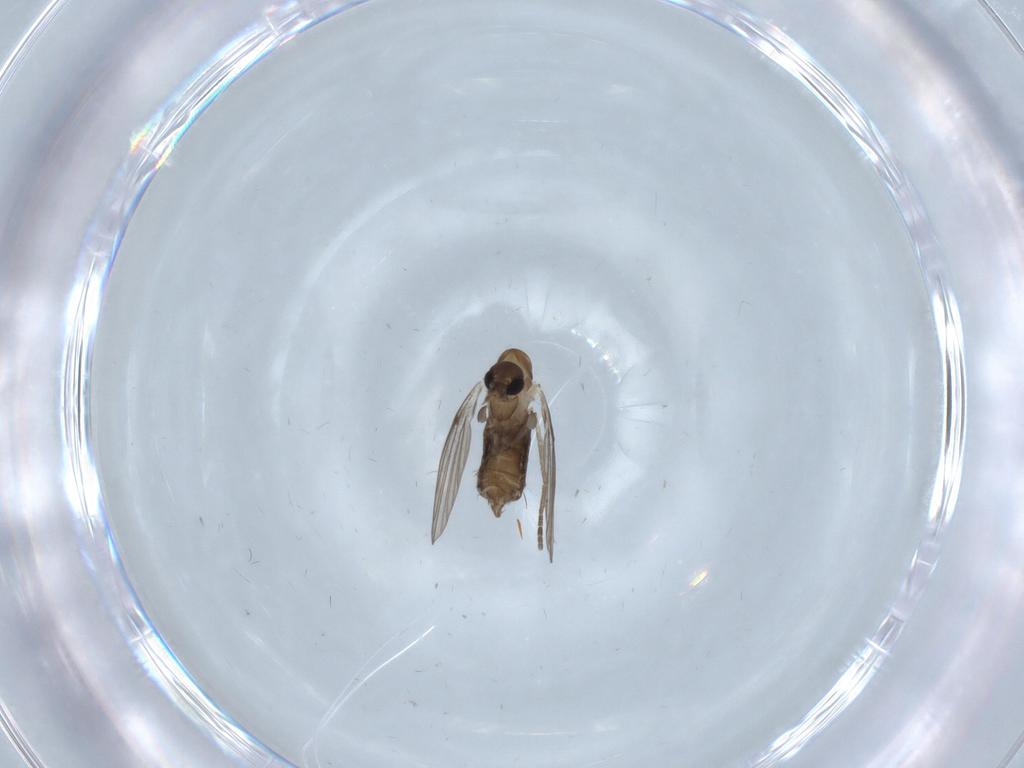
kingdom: Animalia
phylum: Arthropoda
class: Insecta
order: Diptera
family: Psychodidae
